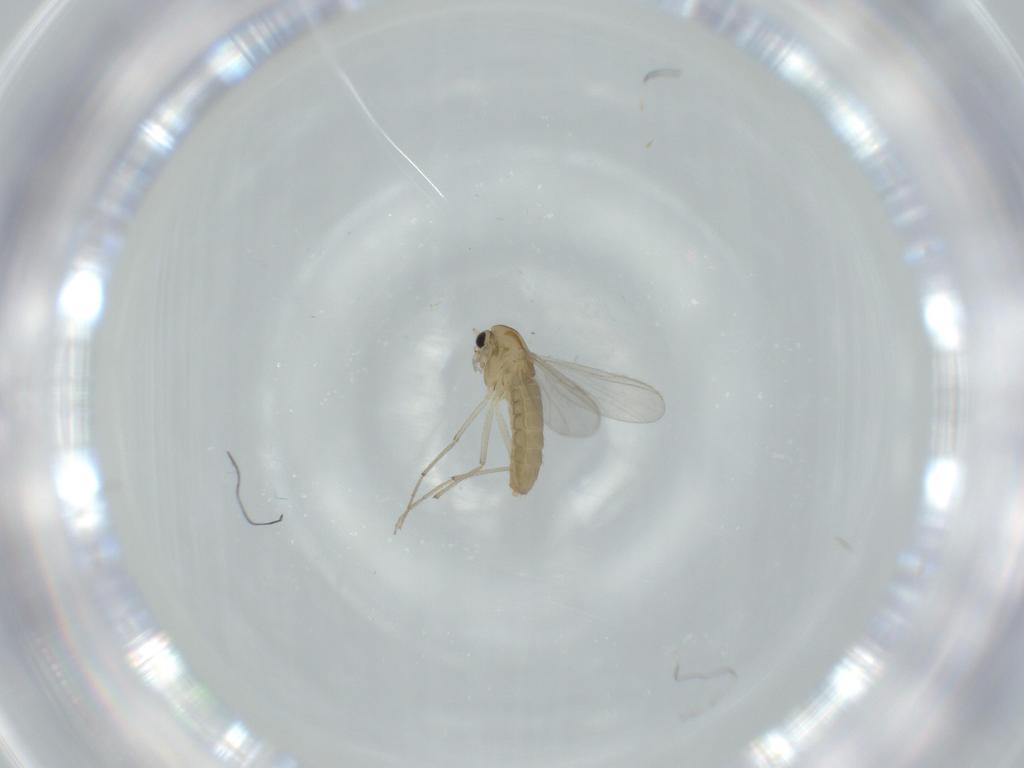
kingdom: Animalia
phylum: Arthropoda
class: Insecta
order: Diptera
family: Chironomidae
